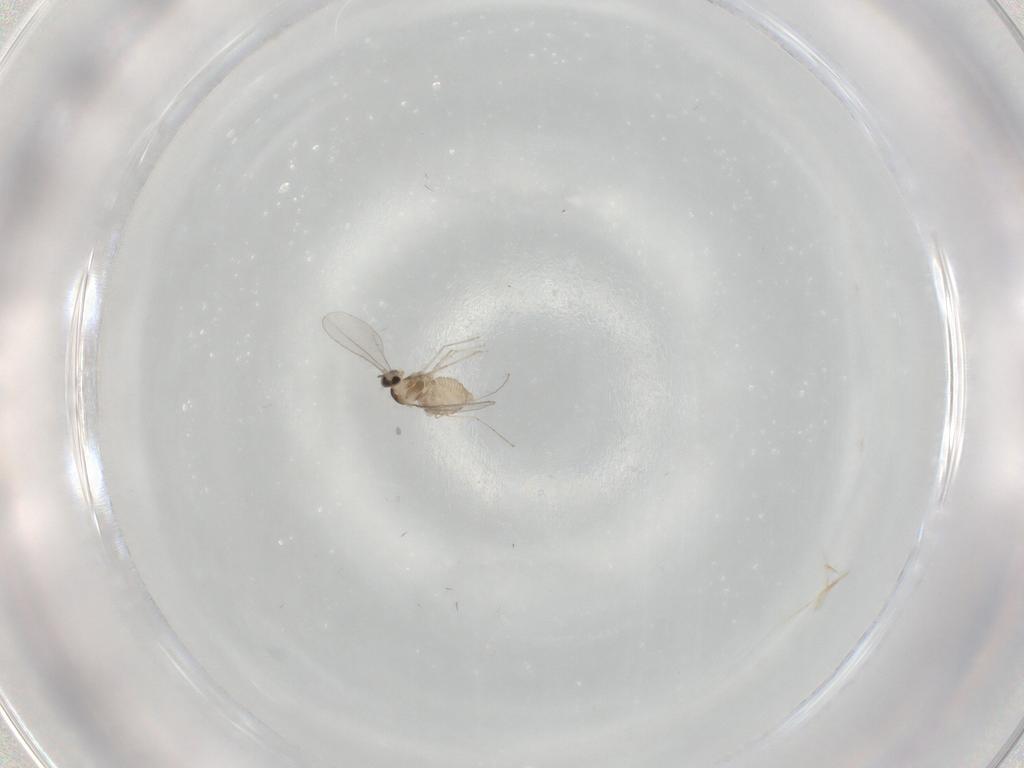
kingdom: Animalia
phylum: Arthropoda
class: Insecta
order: Diptera
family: Cecidomyiidae
